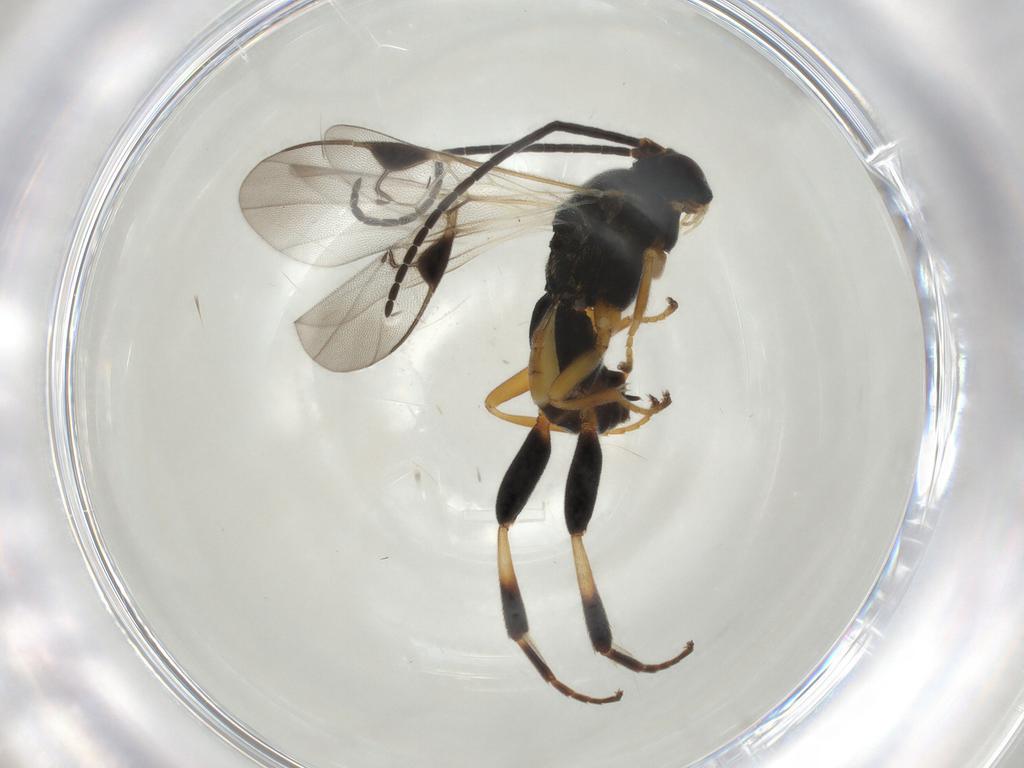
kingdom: Animalia
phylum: Arthropoda
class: Insecta
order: Hymenoptera
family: Braconidae
